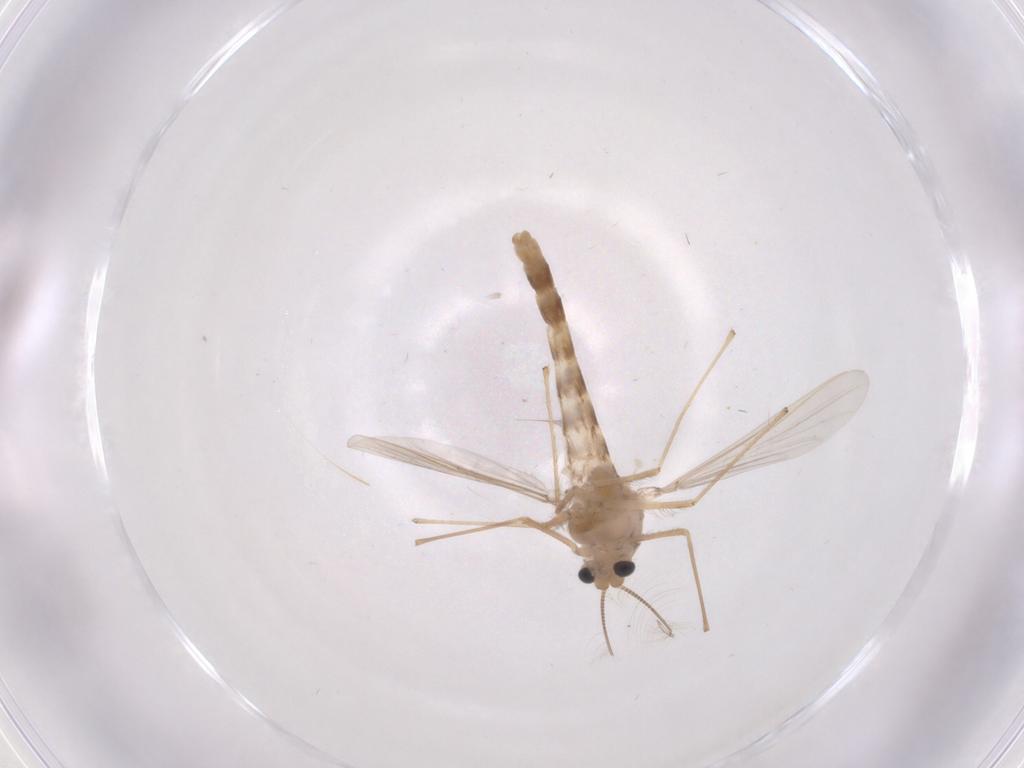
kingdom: Animalia
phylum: Arthropoda
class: Insecta
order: Diptera
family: Chironomidae
